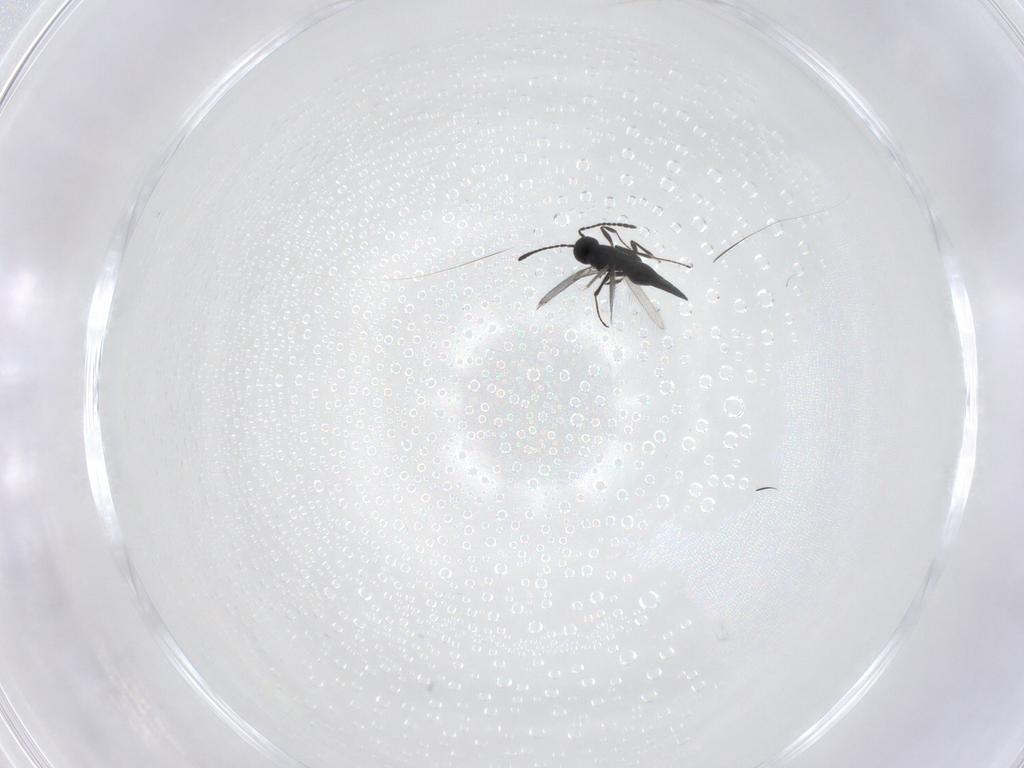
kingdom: Animalia
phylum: Arthropoda
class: Insecta
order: Hymenoptera
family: Scelionidae
